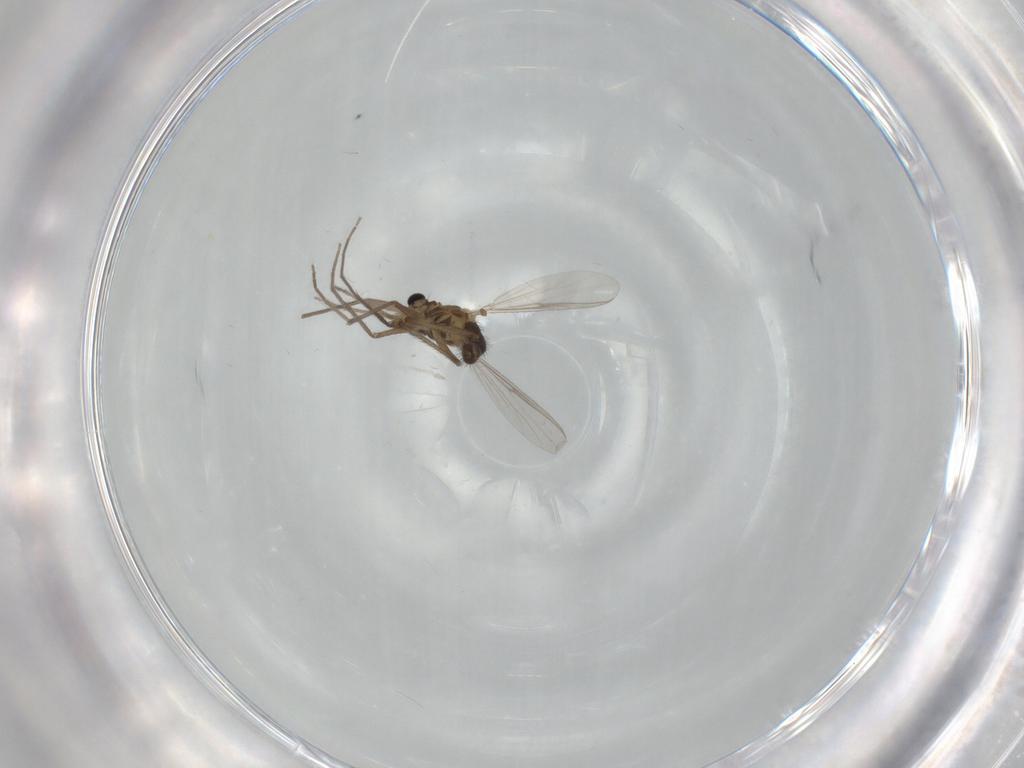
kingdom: Animalia
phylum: Arthropoda
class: Insecta
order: Diptera
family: Chironomidae
